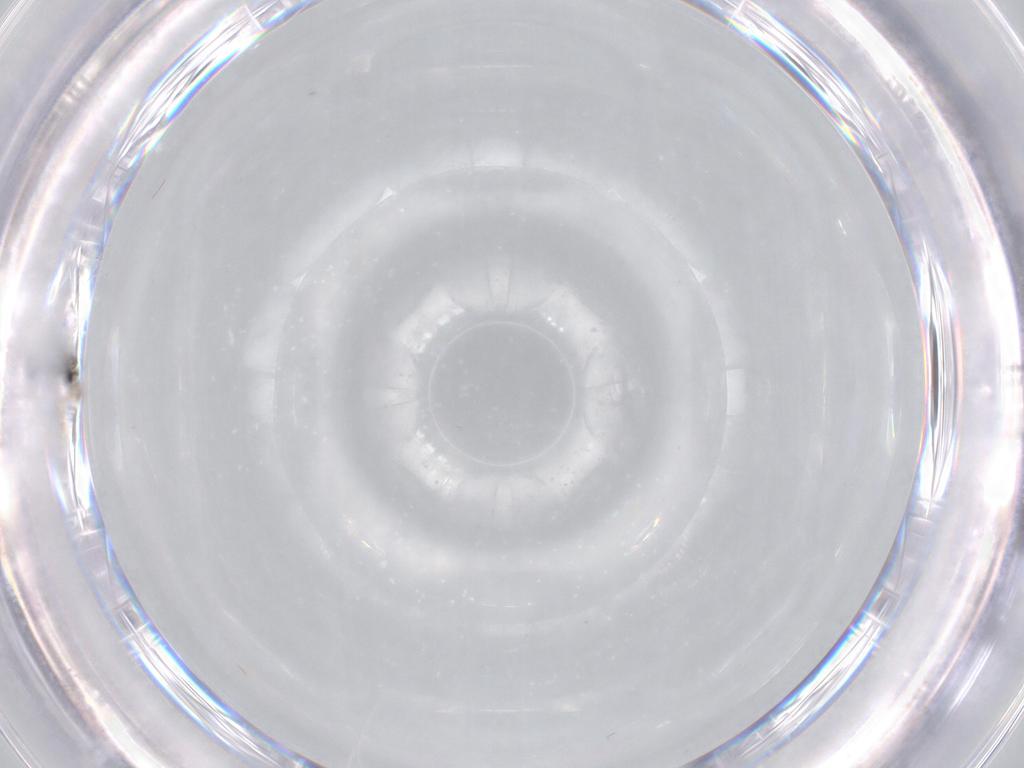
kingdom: Animalia
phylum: Arthropoda
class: Insecta
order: Diptera
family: Cecidomyiidae
